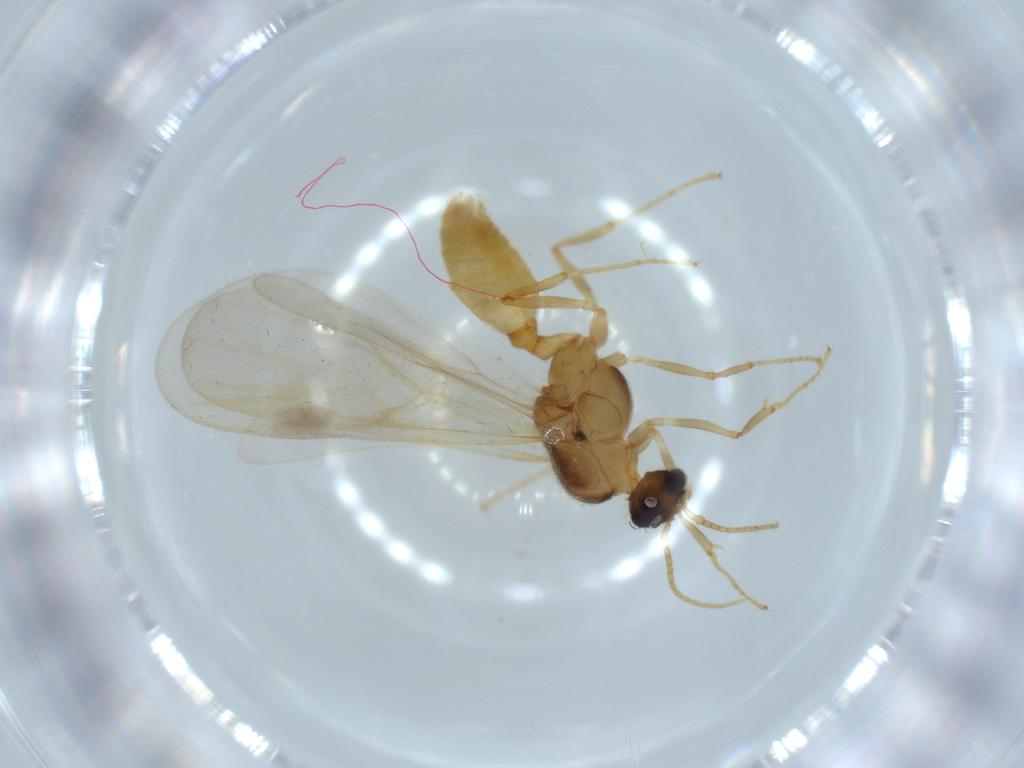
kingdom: Animalia
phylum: Arthropoda
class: Insecta
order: Hymenoptera
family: Formicidae
